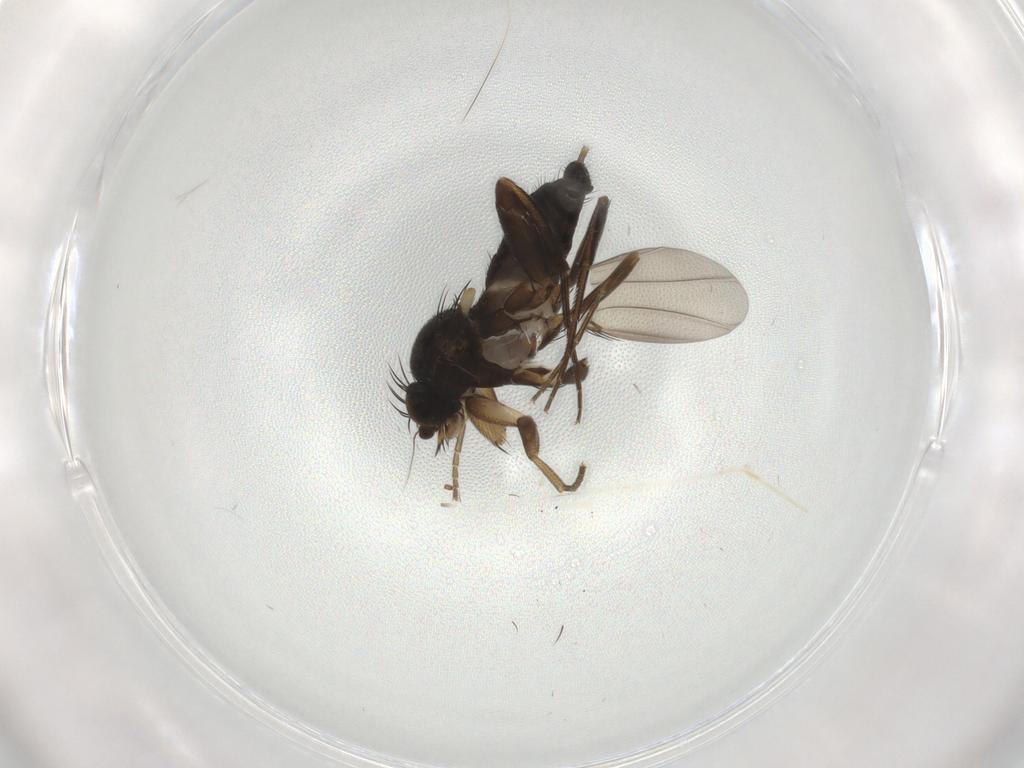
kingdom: Animalia
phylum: Arthropoda
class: Insecta
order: Diptera
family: Phoridae
